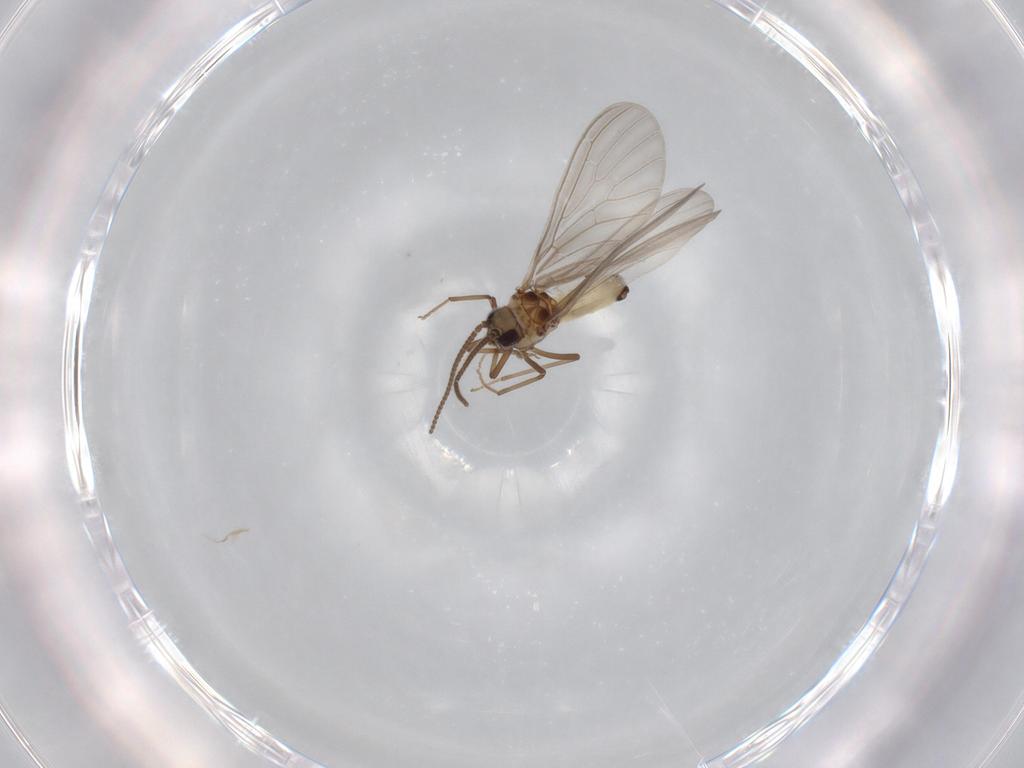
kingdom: Animalia
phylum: Arthropoda
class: Insecta
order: Neuroptera
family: Coniopterygidae
